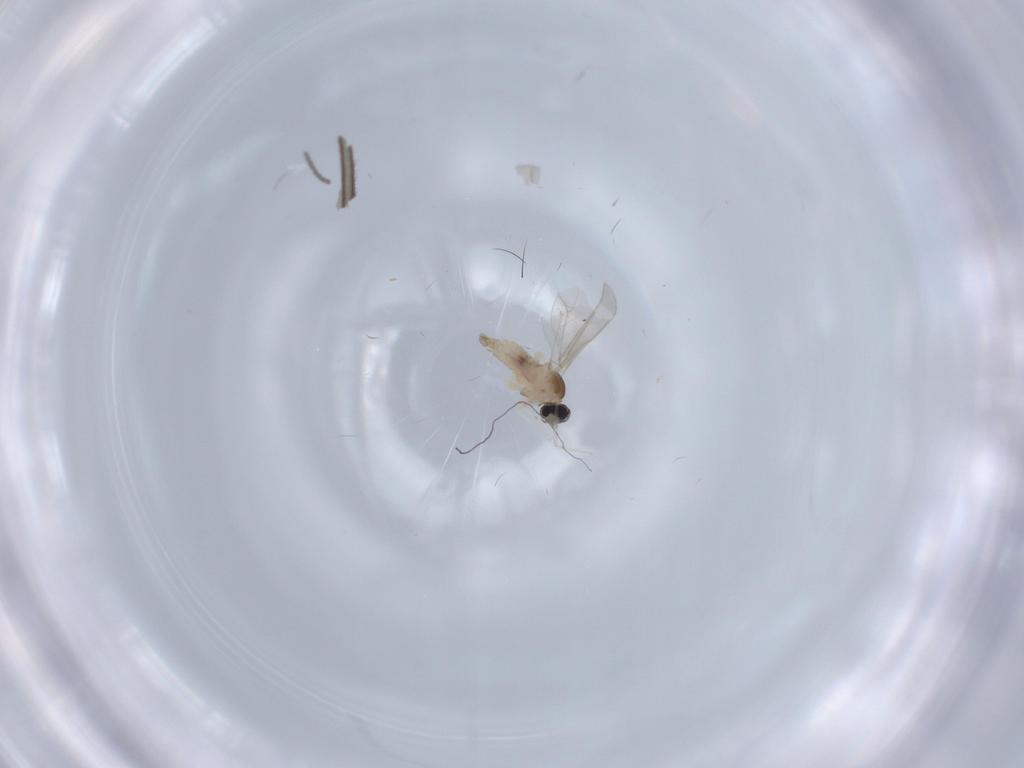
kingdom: Animalia
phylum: Arthropoda
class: Insecta
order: Diptera
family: Cecidomyiidae
